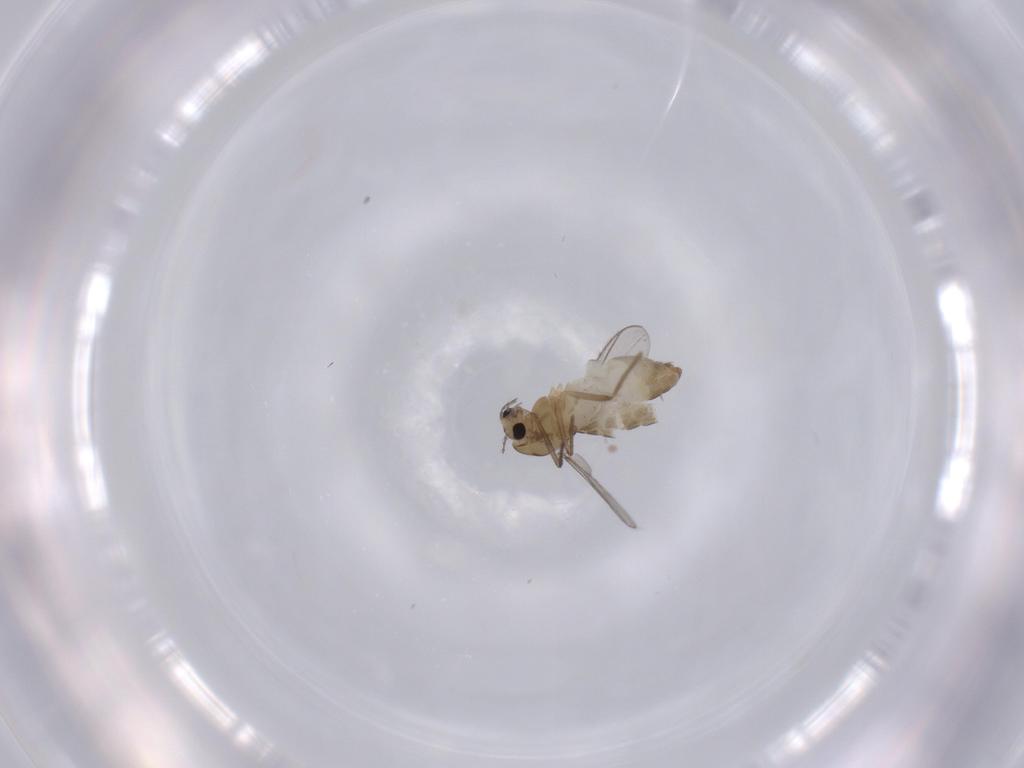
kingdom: Animalia
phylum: Arthropoda
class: Insecta
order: Diptera
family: Chironomidae
